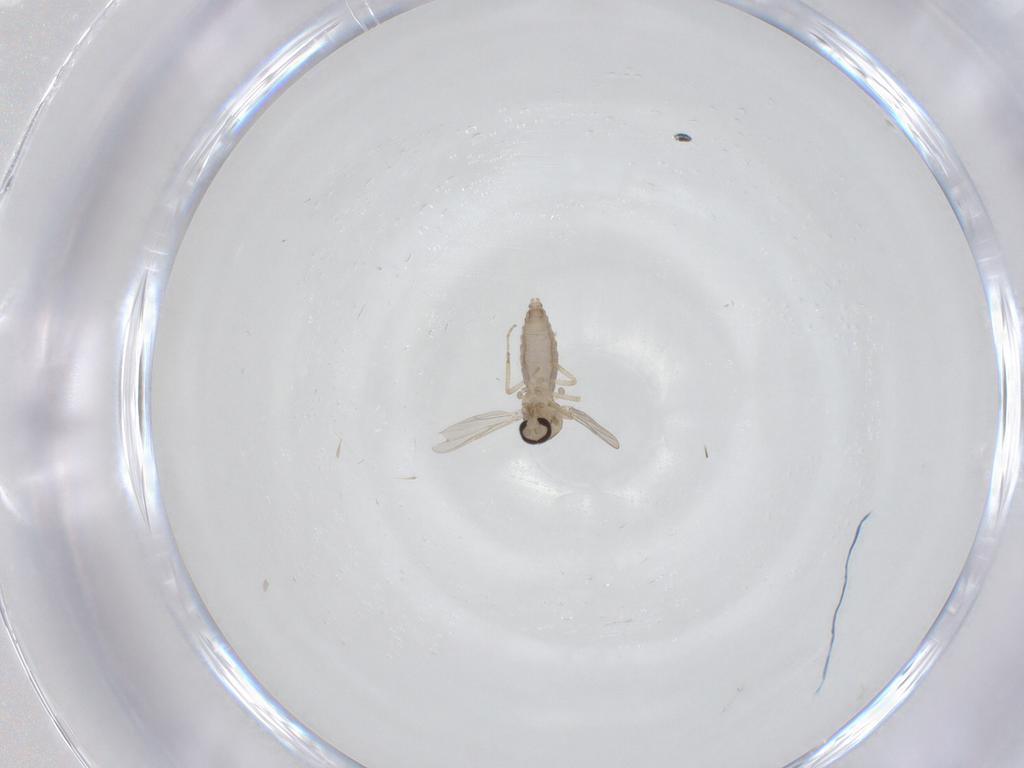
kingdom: Animalia
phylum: Arthropoda
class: Insecta
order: Diptera
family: Ceratopogonidae
